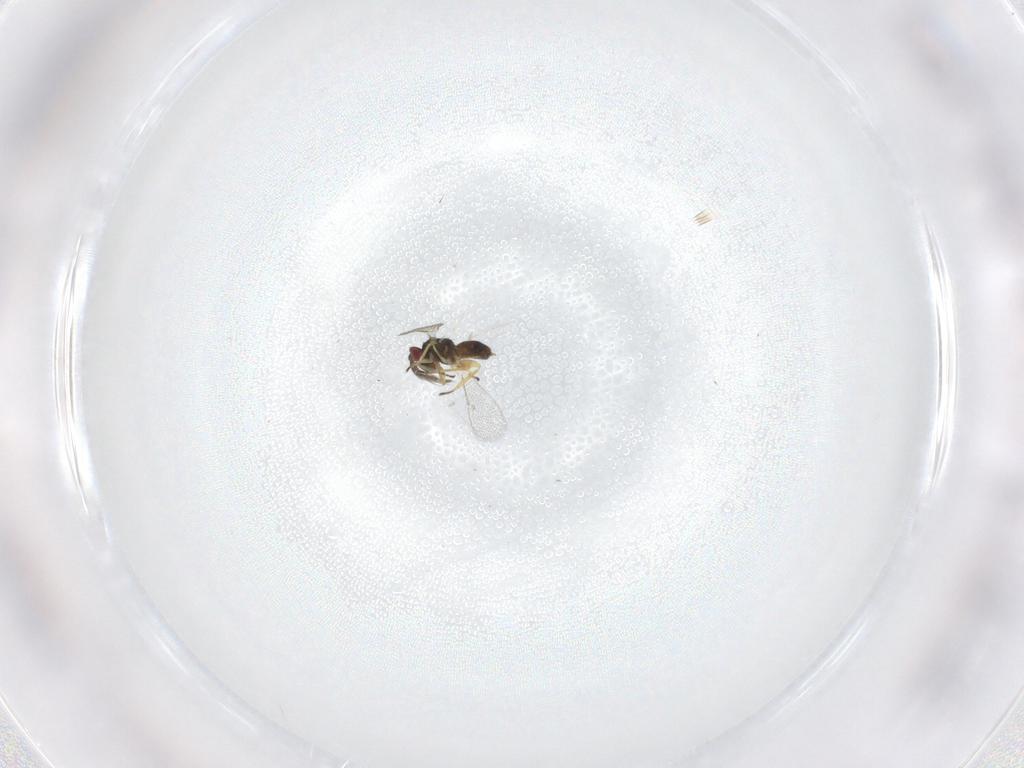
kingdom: Animalia
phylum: Arthropoda
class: Insecta
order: Hymenoptera
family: Eulophidae
